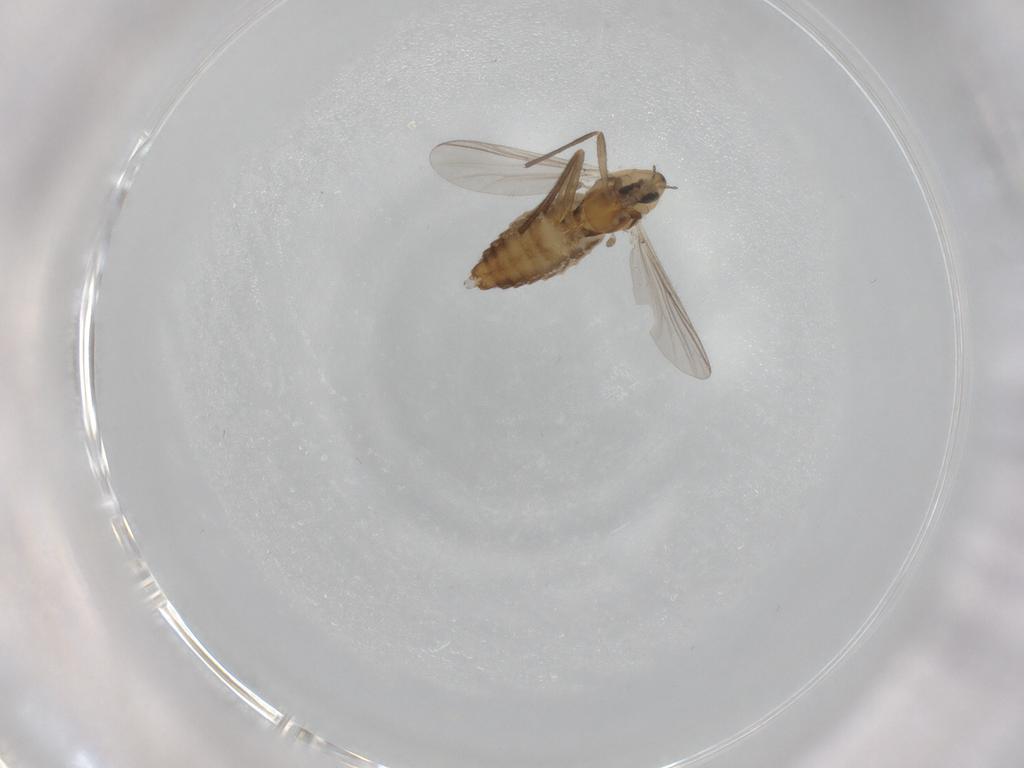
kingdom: Animalia
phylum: Arthropoda
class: Insecta
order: Diptera
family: Chironomidae
